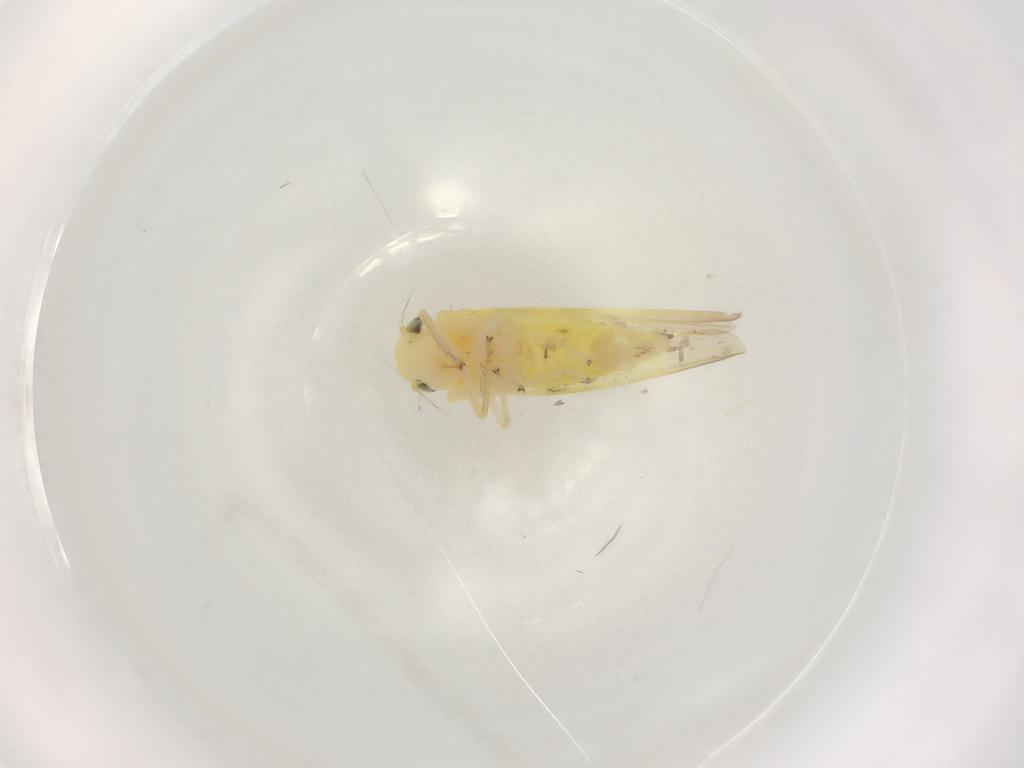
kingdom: Animalia
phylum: Arthropoda
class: Insecta
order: Hemiptera
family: Cicadellidae
